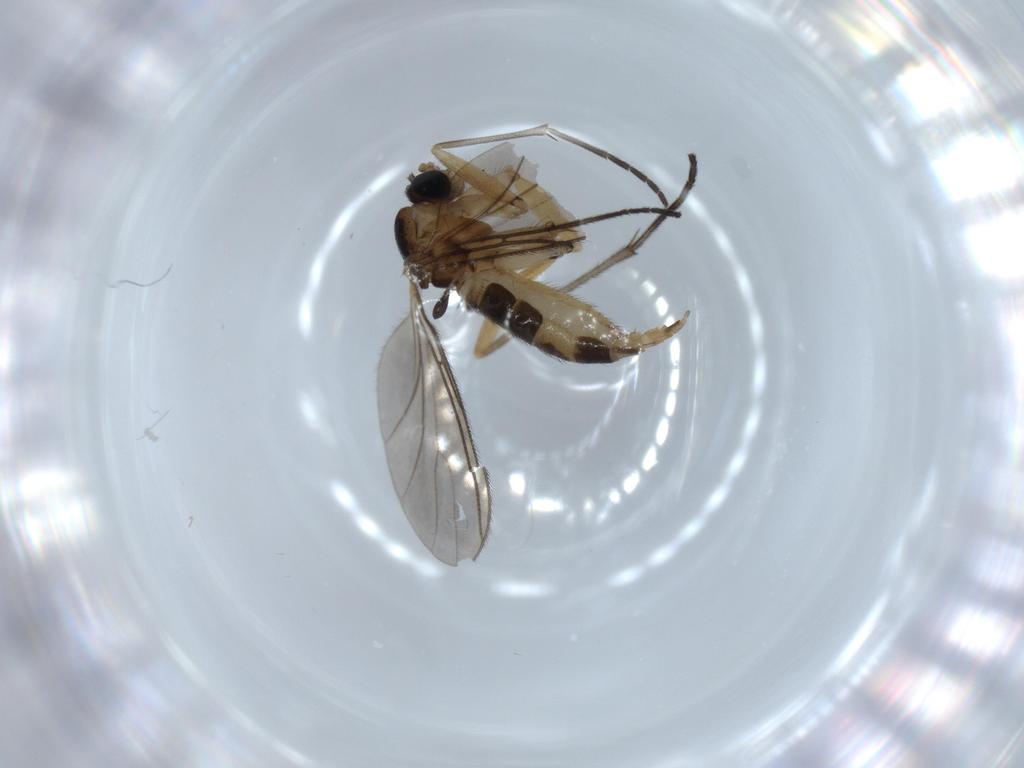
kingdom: Animalia
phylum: Arthropoda
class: Insecta
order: Diptera
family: Sciaridae
